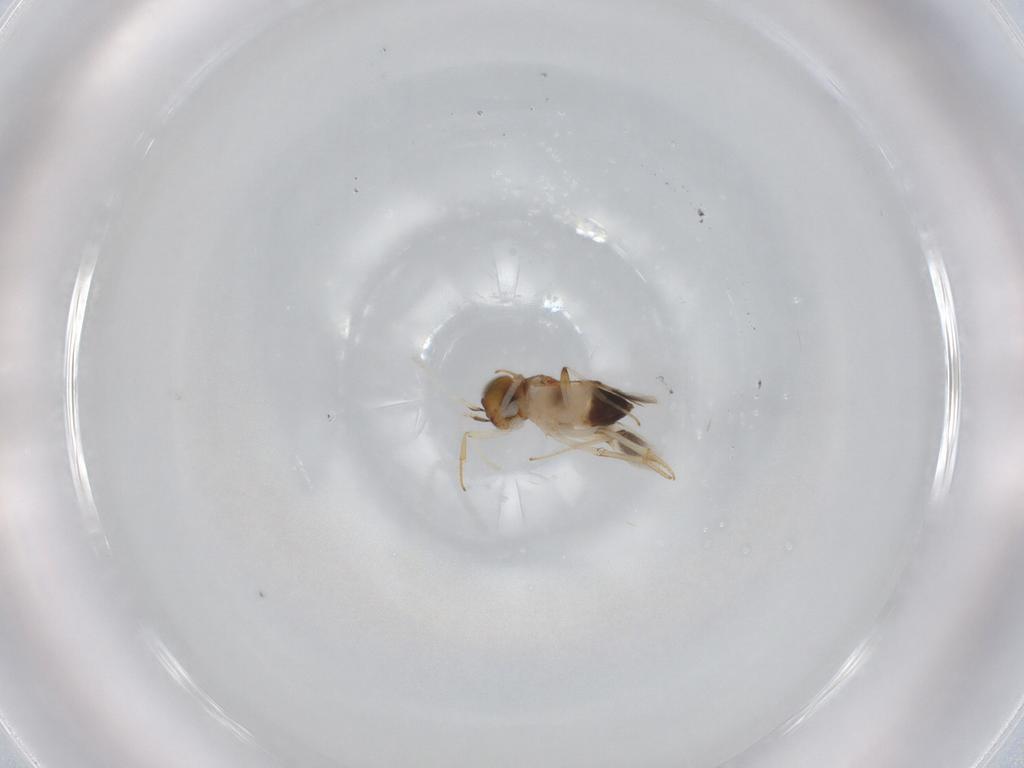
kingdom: Animalia
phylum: Arthropoda
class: Insecta
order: Hymenoptera
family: Encyrtidae
